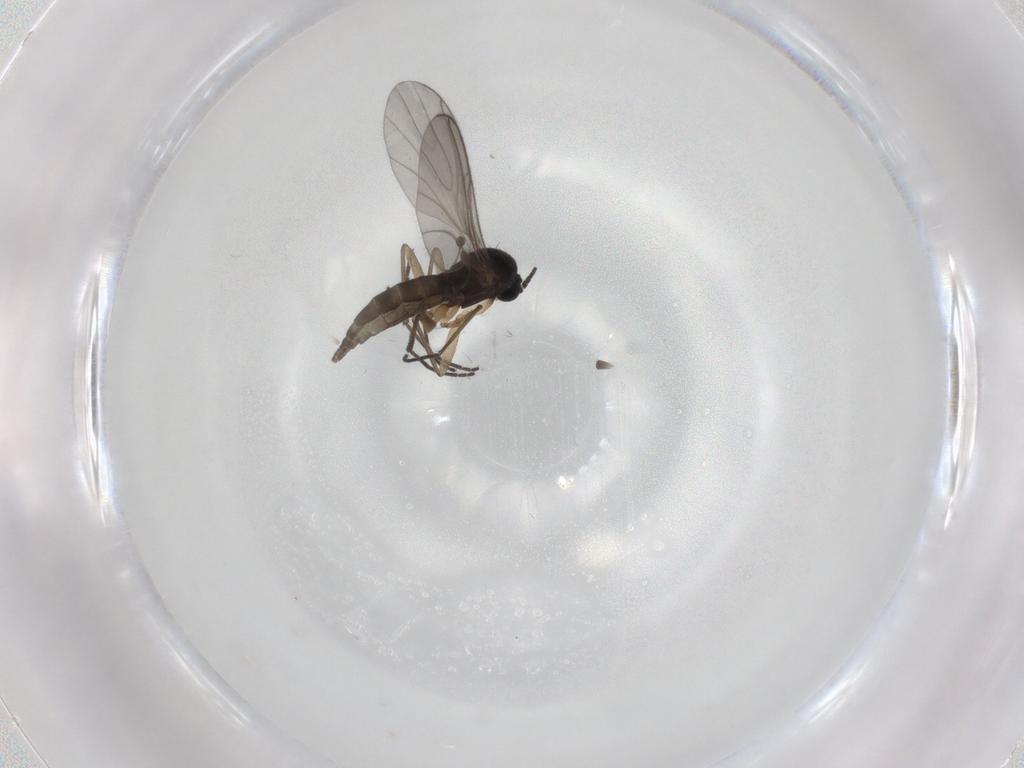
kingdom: Animalia
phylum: Arthropoda
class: Insecta
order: Diptera
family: Sciaridae
